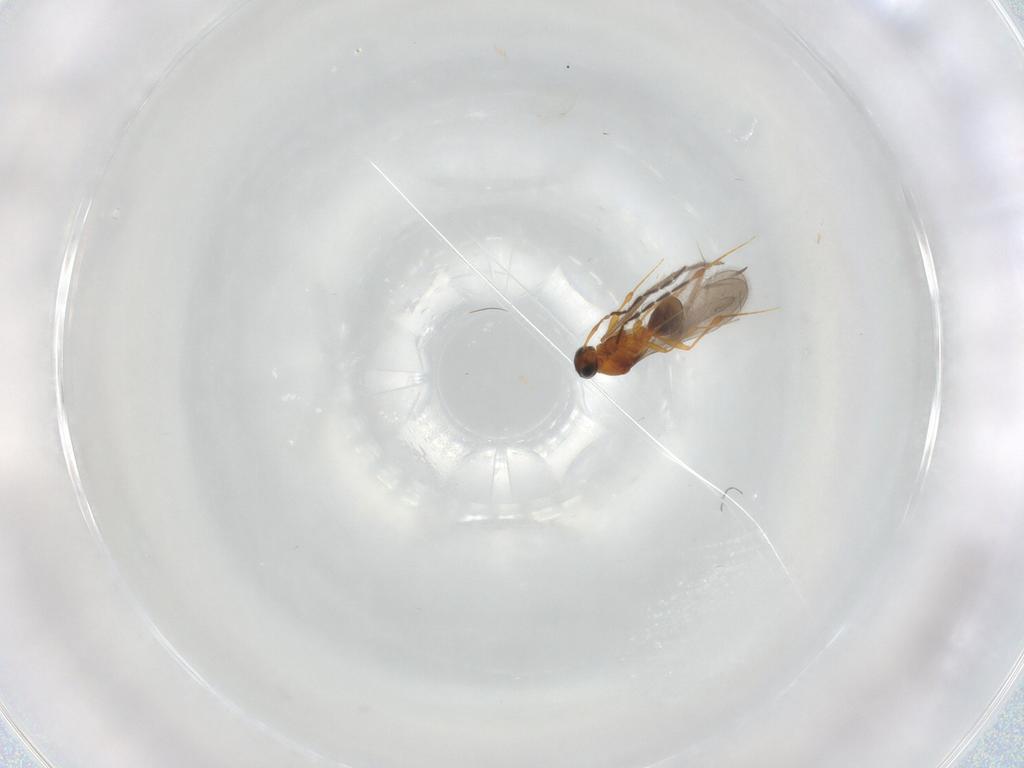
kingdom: Animalia
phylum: Arthropoda
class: Insecta
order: Hymenoptera
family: Platygastridae
